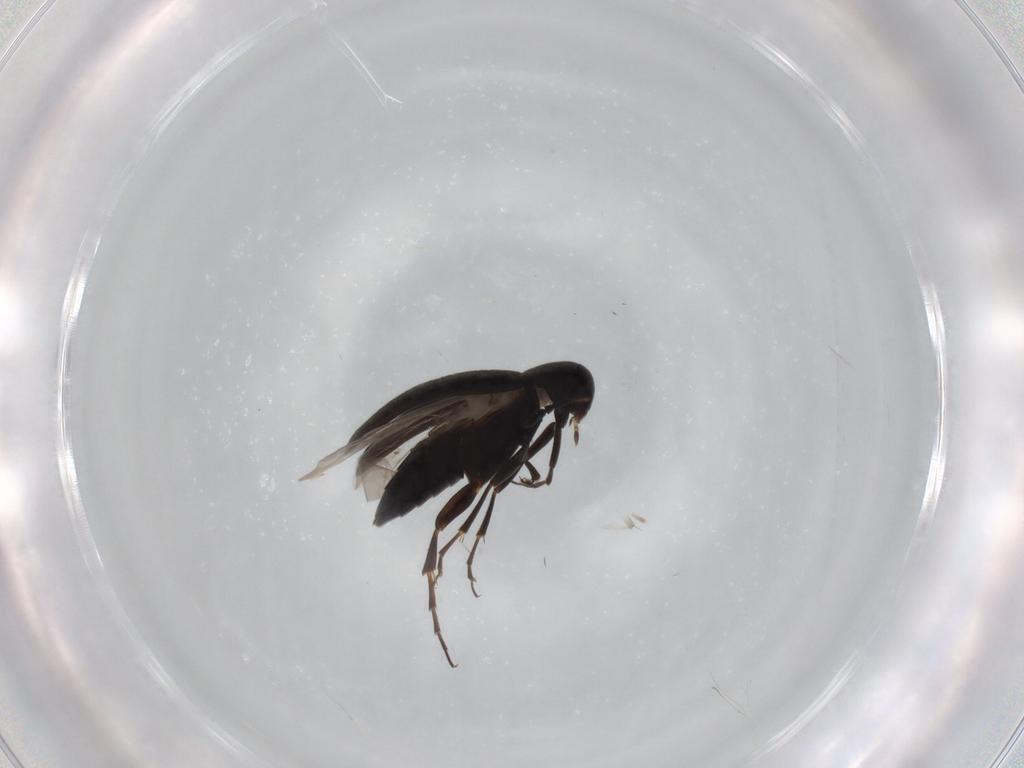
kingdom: Animalia
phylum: Arthropoda
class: Insecta
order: Coleoptera
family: Scraptiidae
